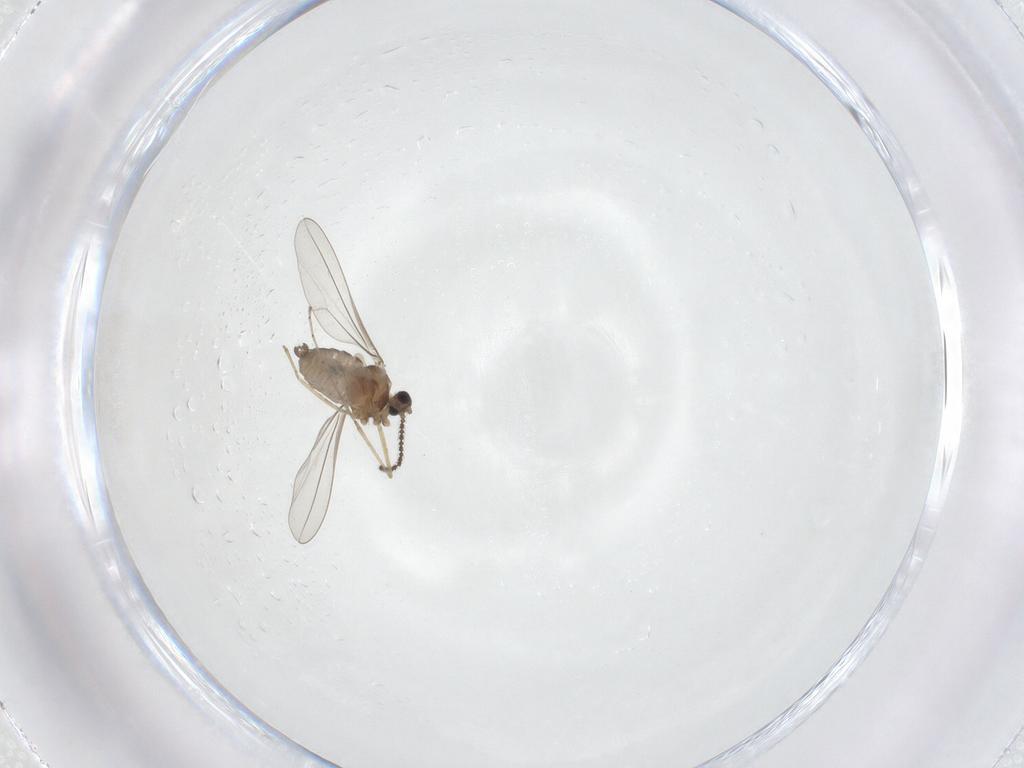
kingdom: Animalia
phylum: Arthropoda
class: Insecta
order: Diptera
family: Cecidomyiidae
